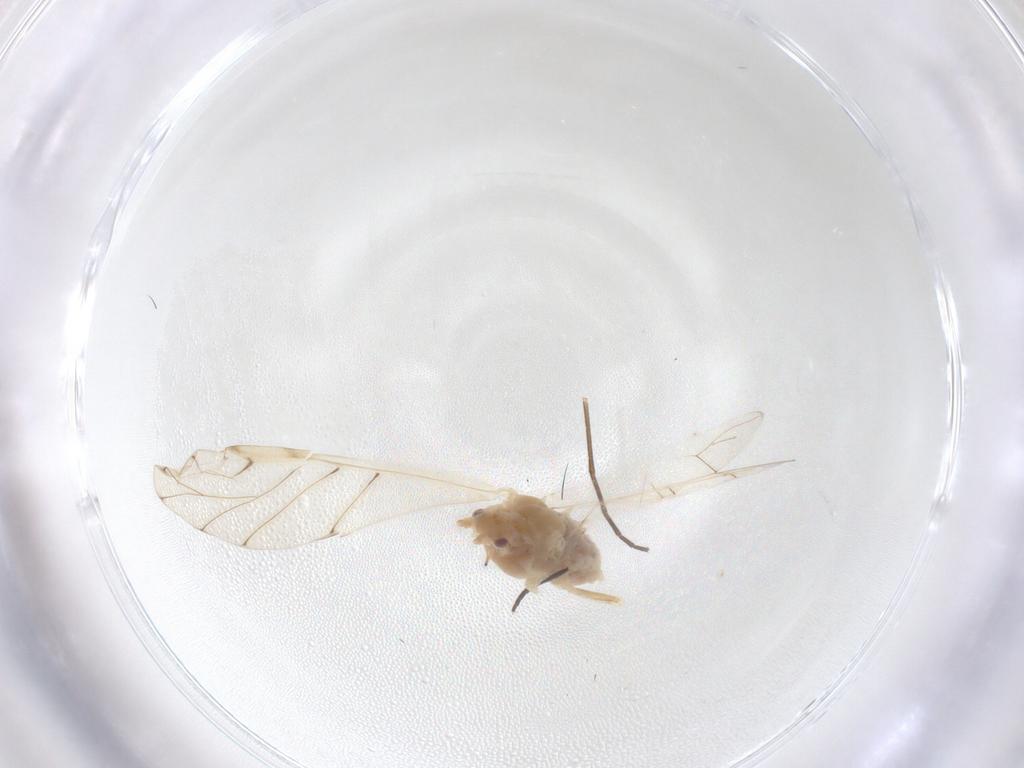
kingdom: Animalia
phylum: Arthropoda
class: Insecta
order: Hemiptera
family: Aphididae
